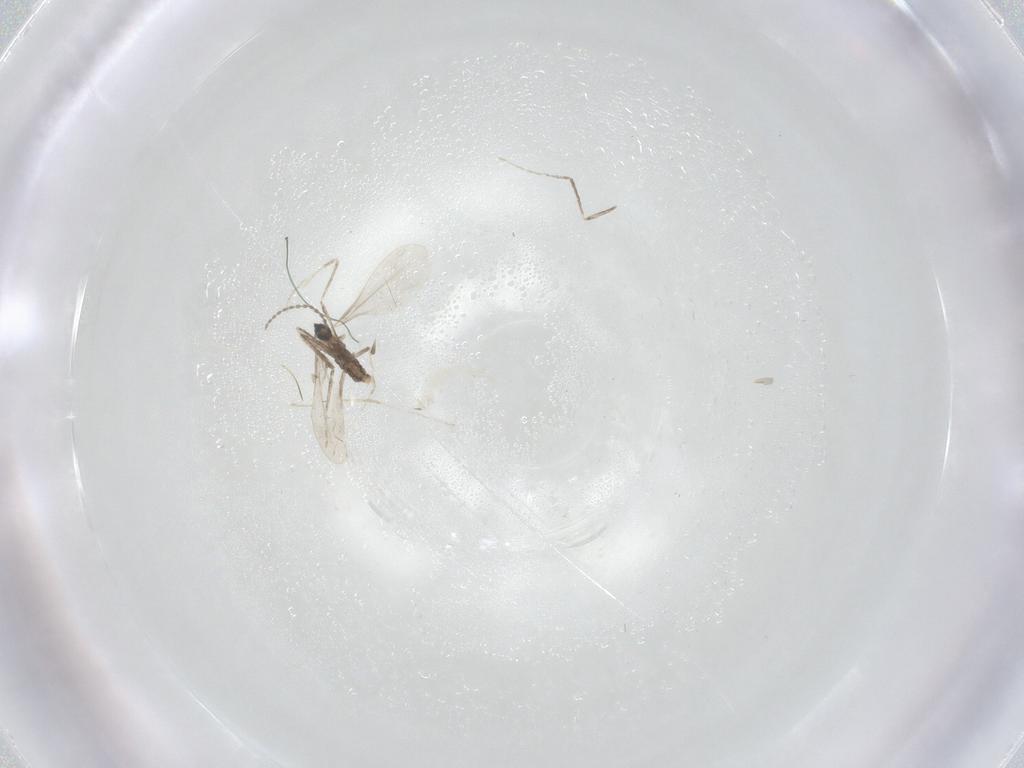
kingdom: Animalia
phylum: Arthropoda
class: Insecta
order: Diptera
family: Cecidomyiidae
